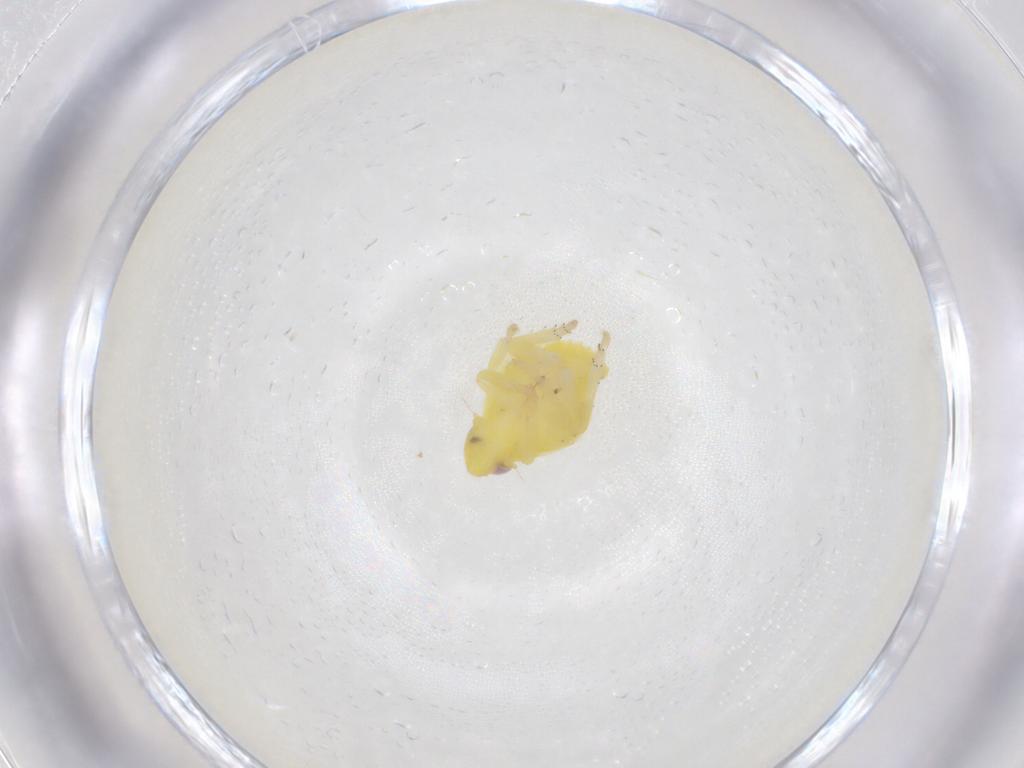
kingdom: Animalia
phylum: Arthropoda
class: Insecta
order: Hemiptera
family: Tropiduchidae
